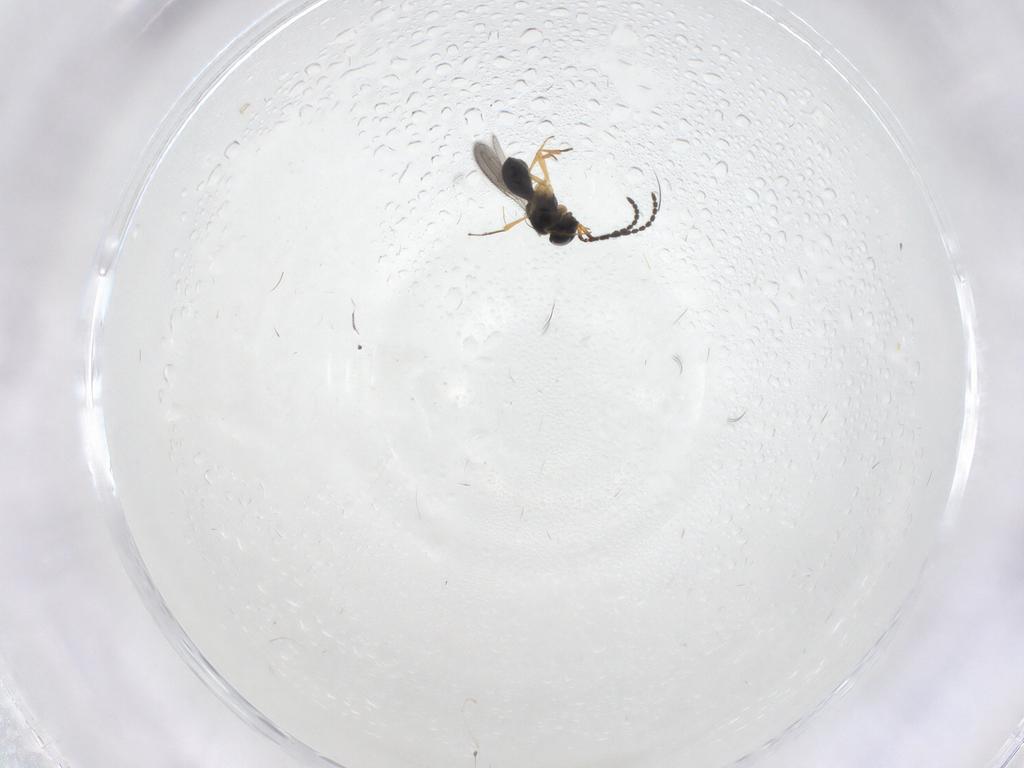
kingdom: Animalia
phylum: Arthropoda
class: Insecta
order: Hymenoptera
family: Scelionidae
